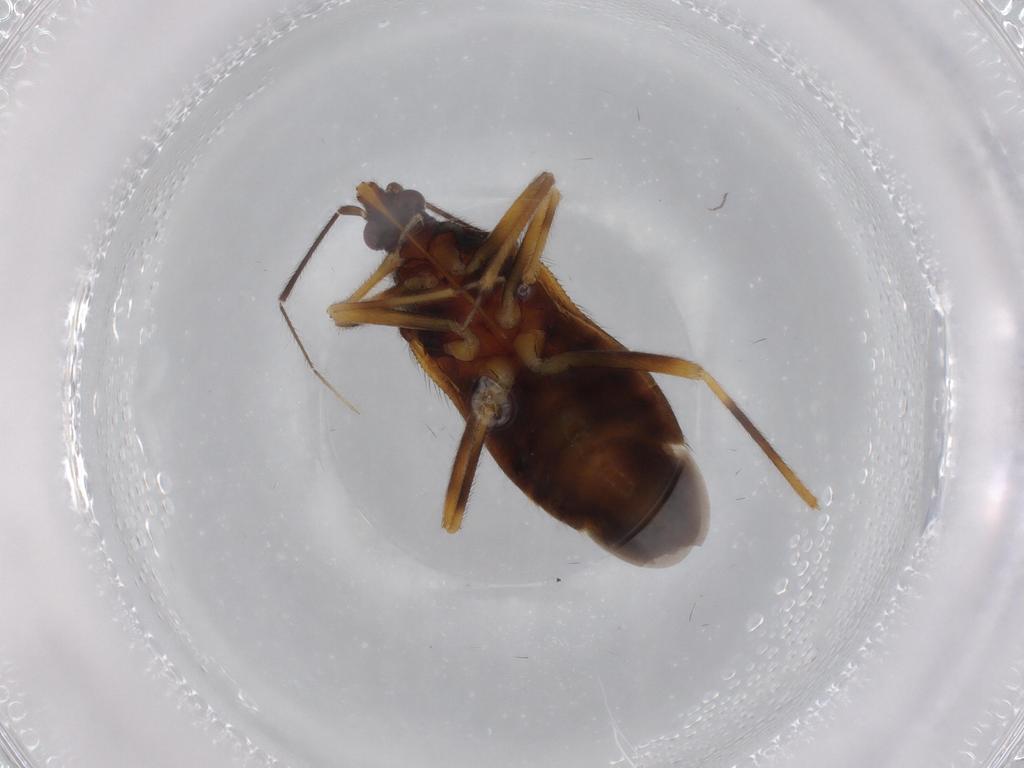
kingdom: Animalia
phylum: Arthropoda
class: Insecta
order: Hemiptera
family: Anthocoridae
